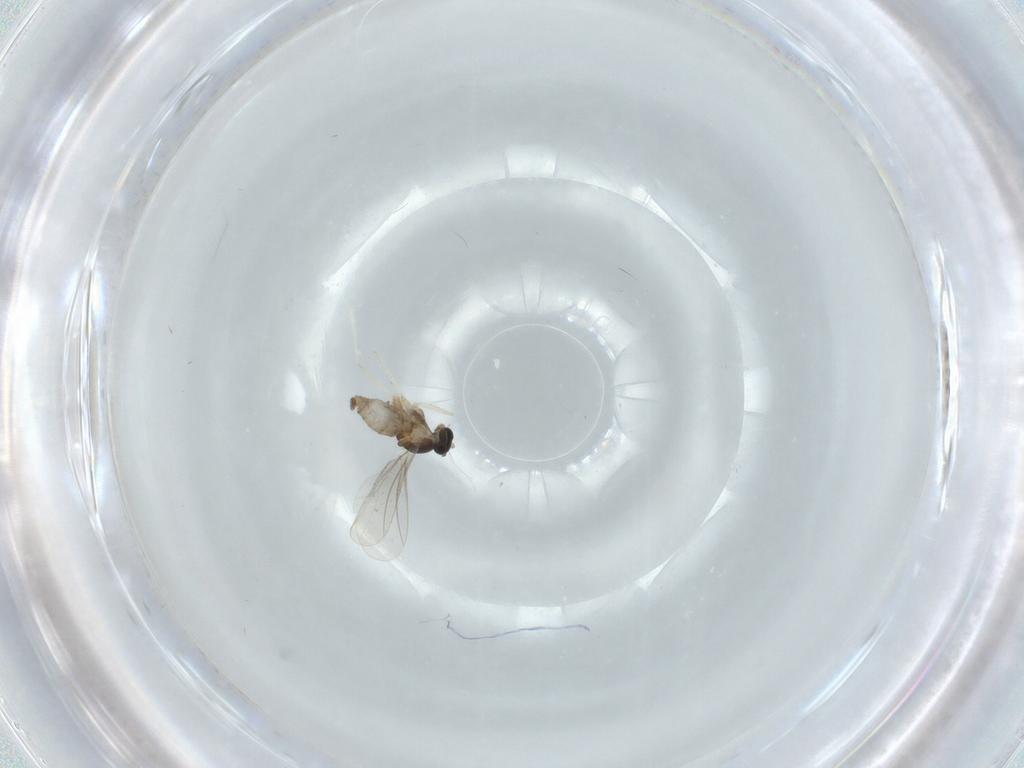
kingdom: Animalia
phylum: Arthropoda
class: Insecta
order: Diptera
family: Cecidomyiidae
